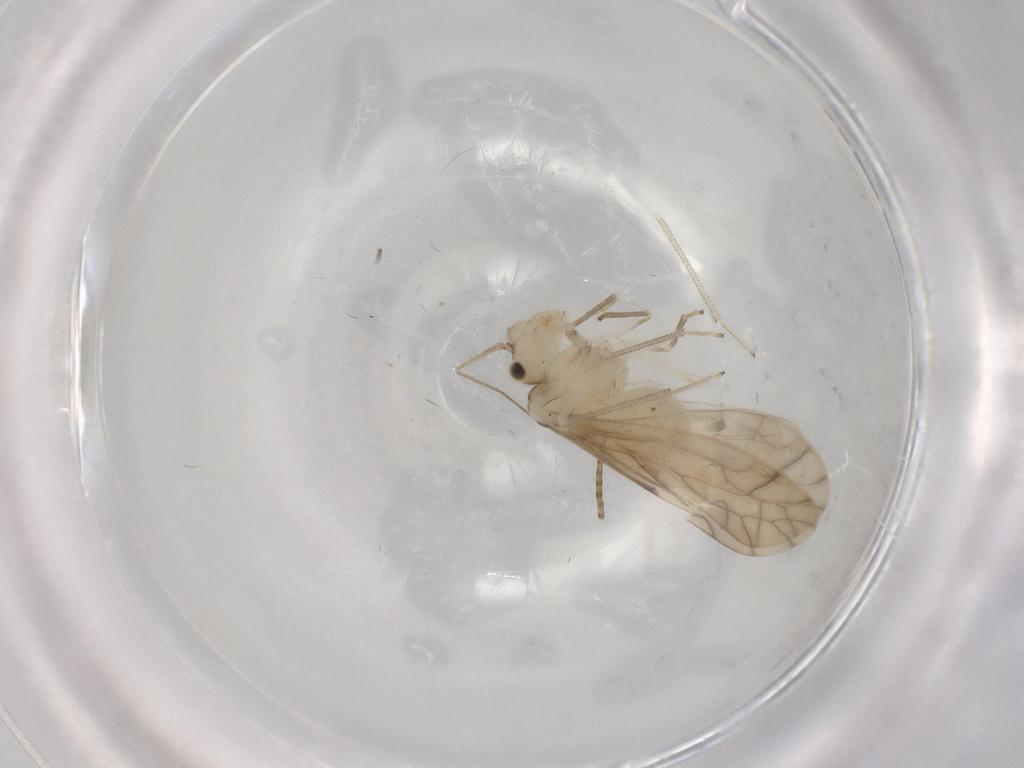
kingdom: Animalia
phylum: Arthropoda
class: Insecta
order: Psocodea
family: Caeciliusidae
